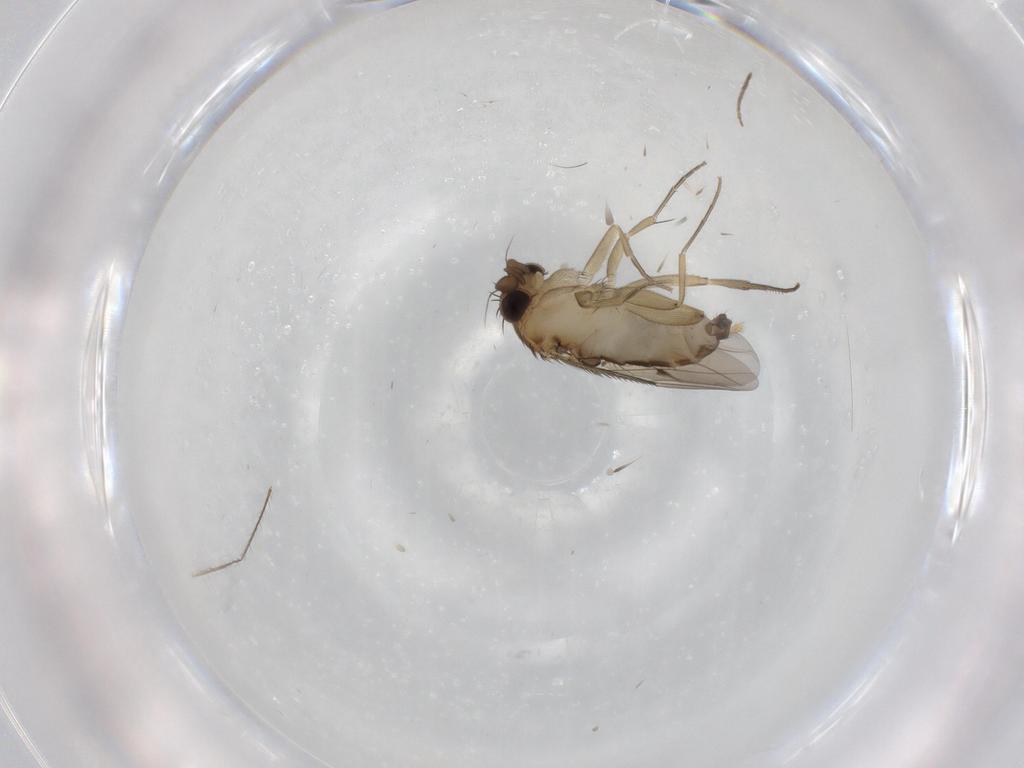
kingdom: Animalia
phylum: Arthropoda
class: Insecta
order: Diptera
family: Phoridae
